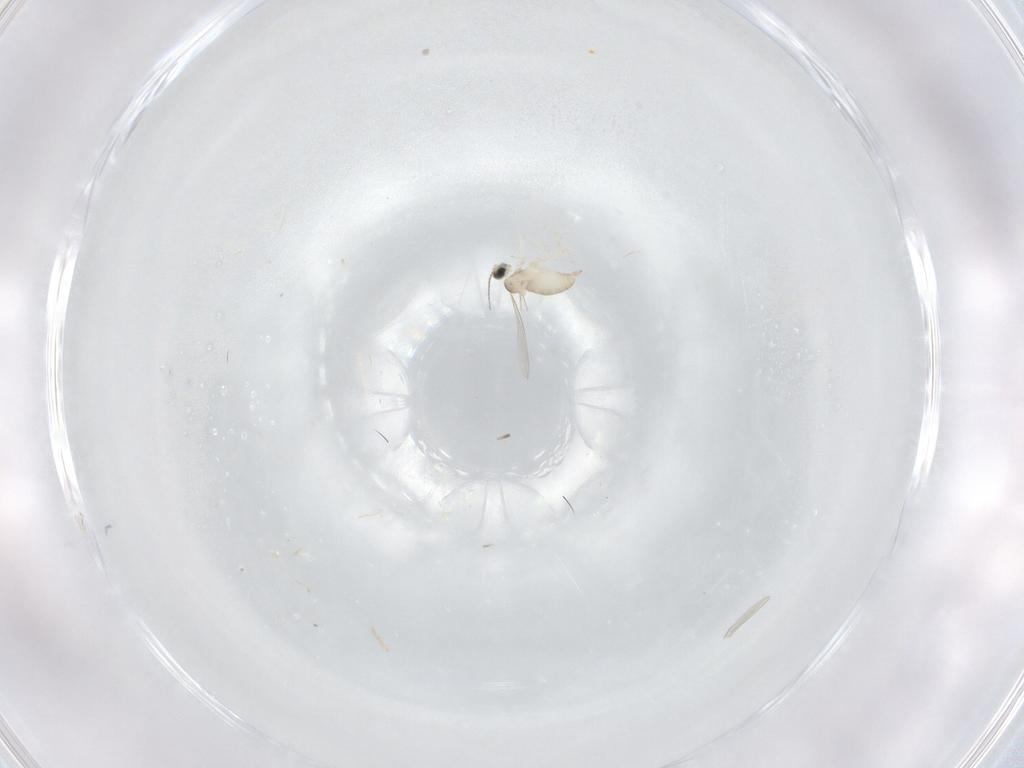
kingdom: Animalia
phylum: Arthropoda
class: Insecta
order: Diptera
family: Cecidomyiidae
